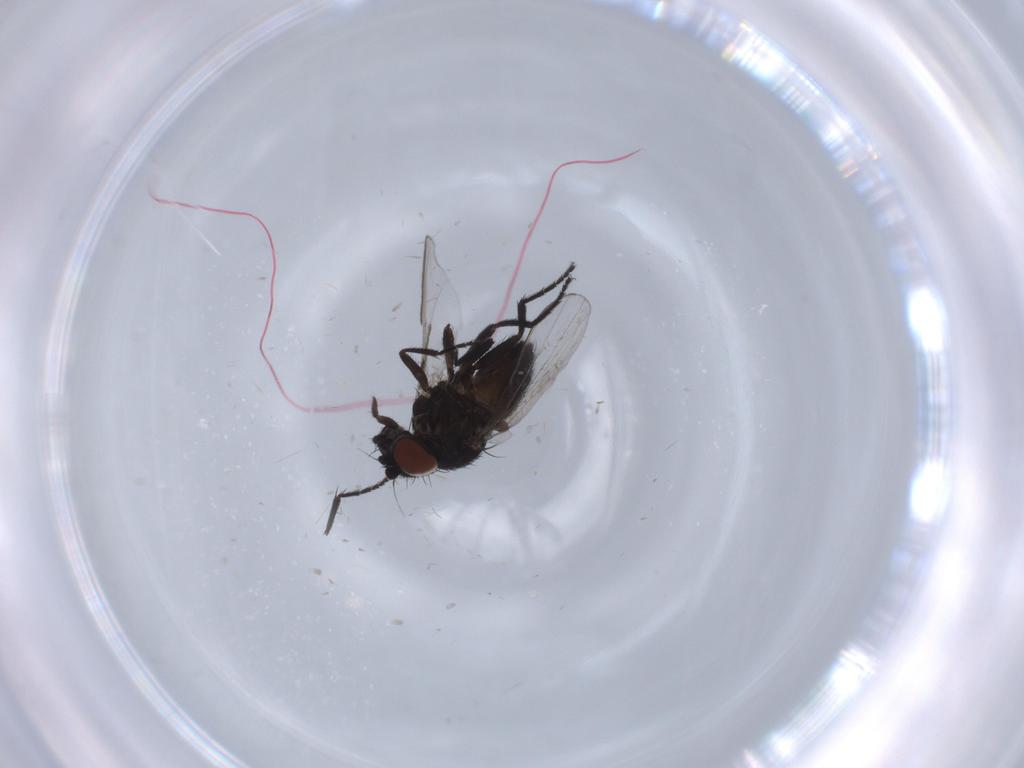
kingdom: Animalia
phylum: Arthropoda
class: Insecta
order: Diptera
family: Milichiidae
